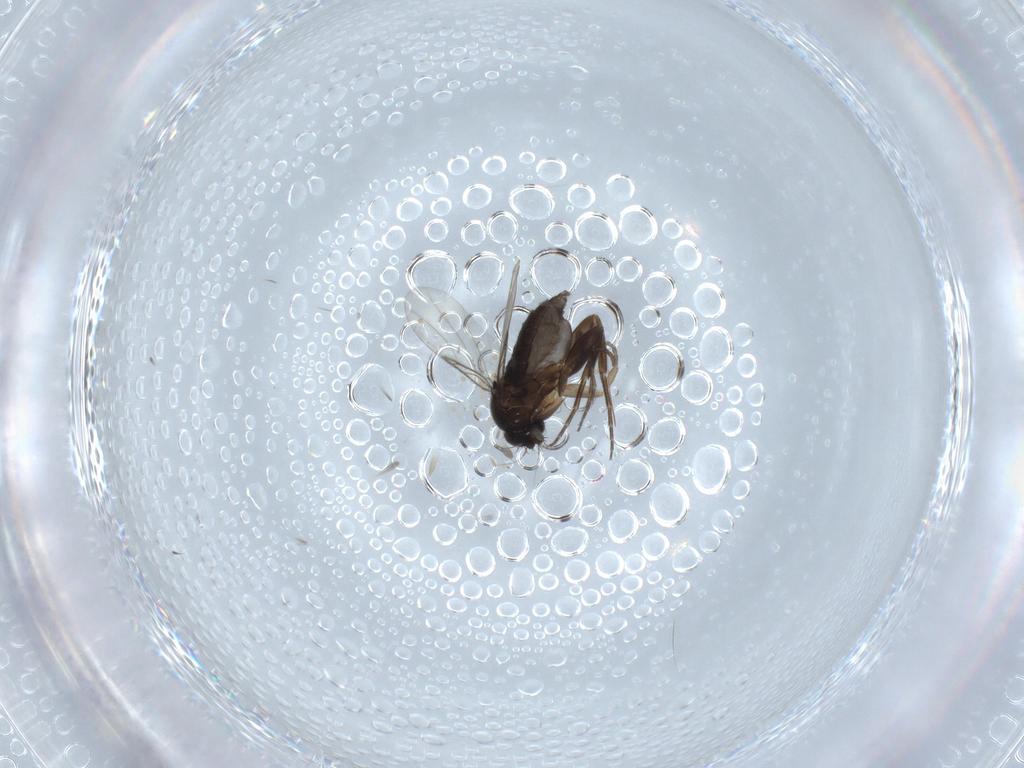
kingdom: Animalia
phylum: Arthropoda
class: Insecta
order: Diptera
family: Phoridae
